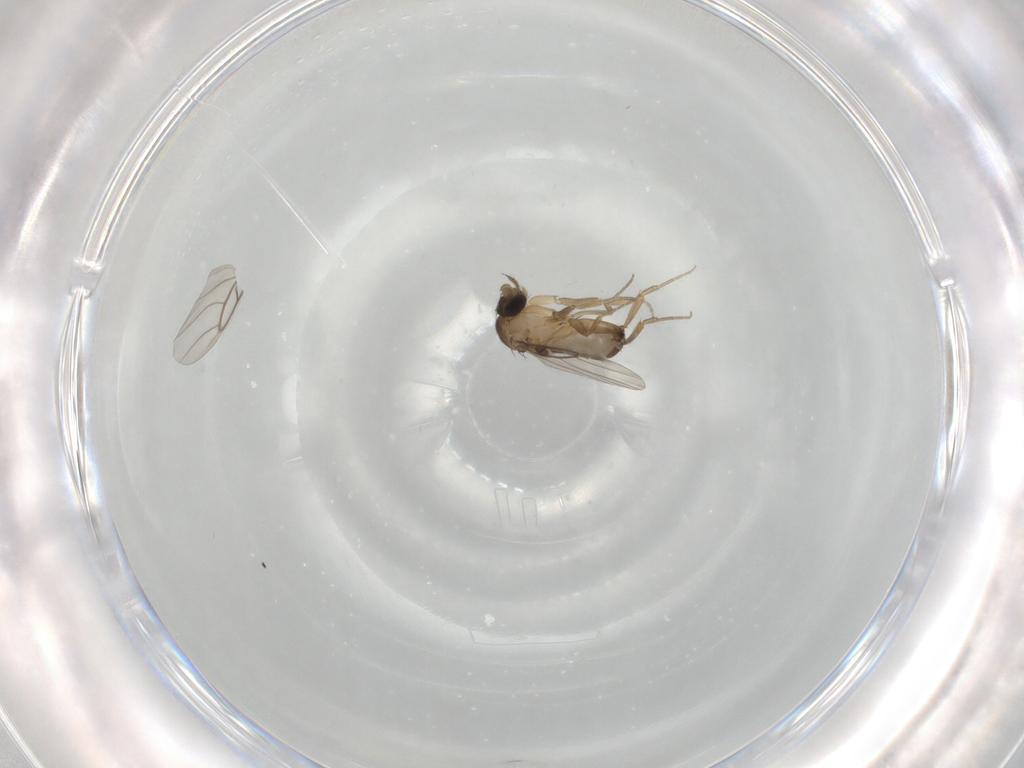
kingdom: Animalia
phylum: Arthropoda
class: Insecta
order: Diptera
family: Phoridae
